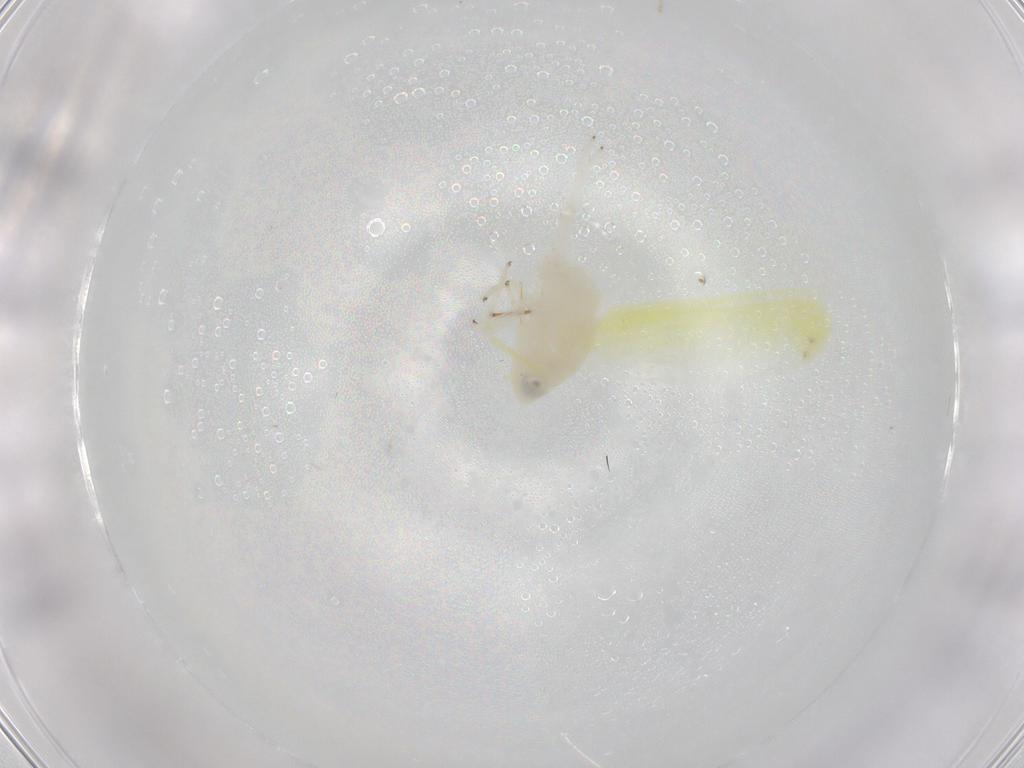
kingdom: Animalia
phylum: Arthropoda
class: Insecta
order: Hemiptera
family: Cicadellidae
